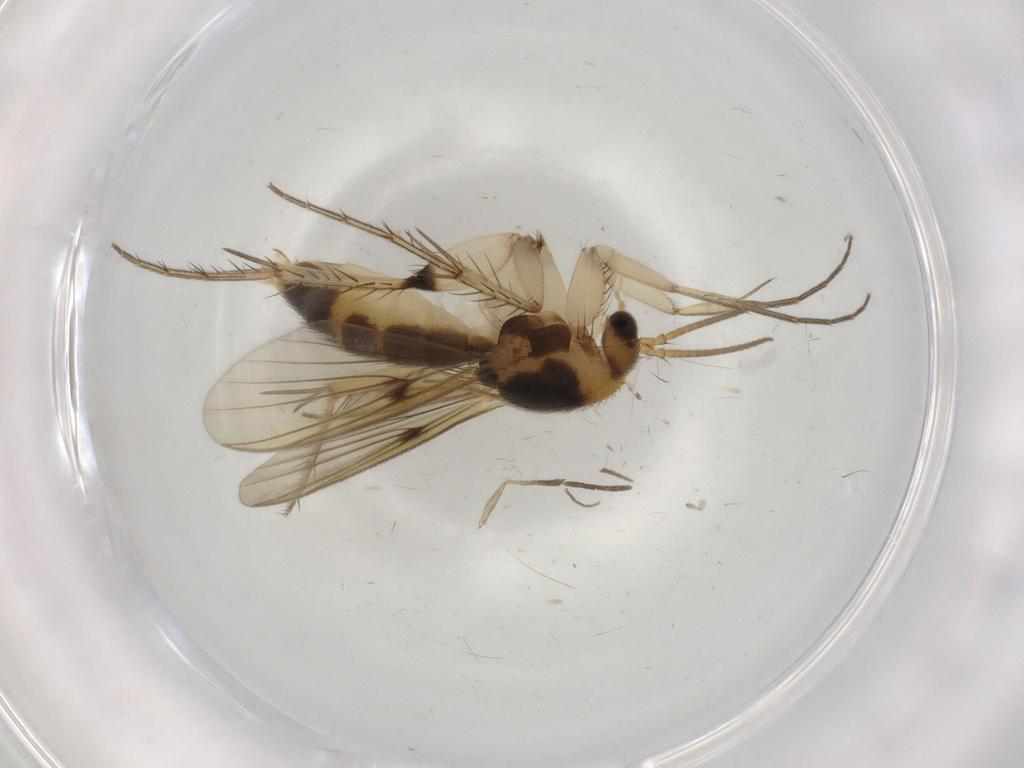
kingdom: Animalia
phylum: Arthropoda
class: Insecta
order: Diptera
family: Mycetophilidae
